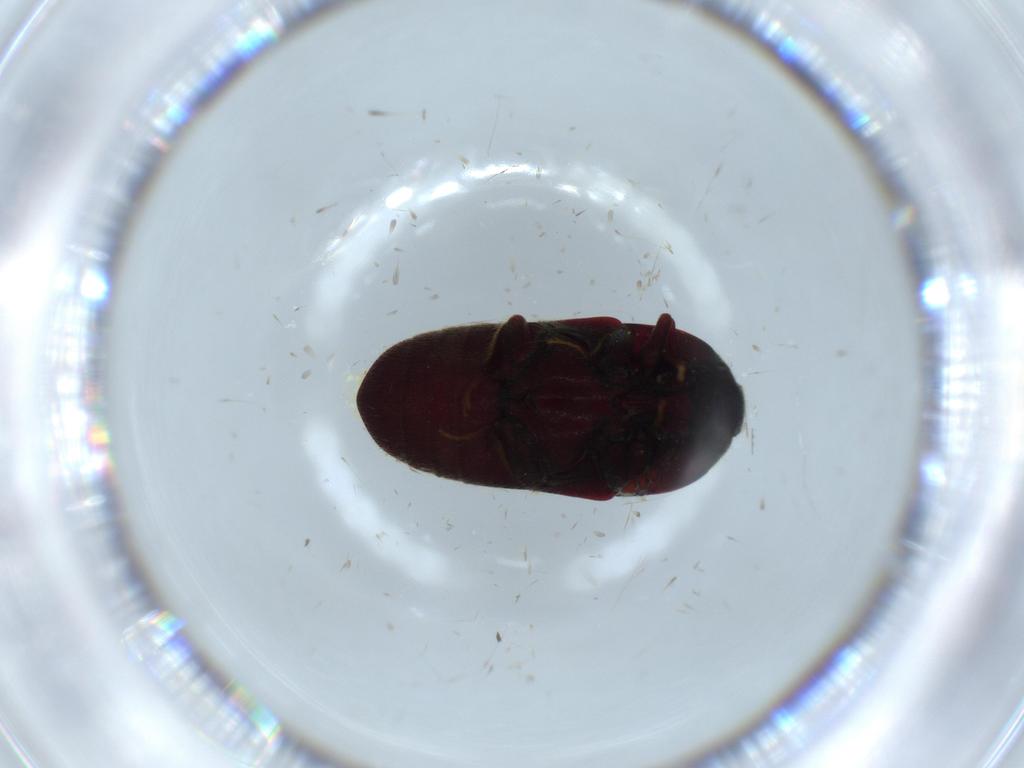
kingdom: Animalia
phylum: Arthropoda
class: Insecta
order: Coleoptera
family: Throscidae
